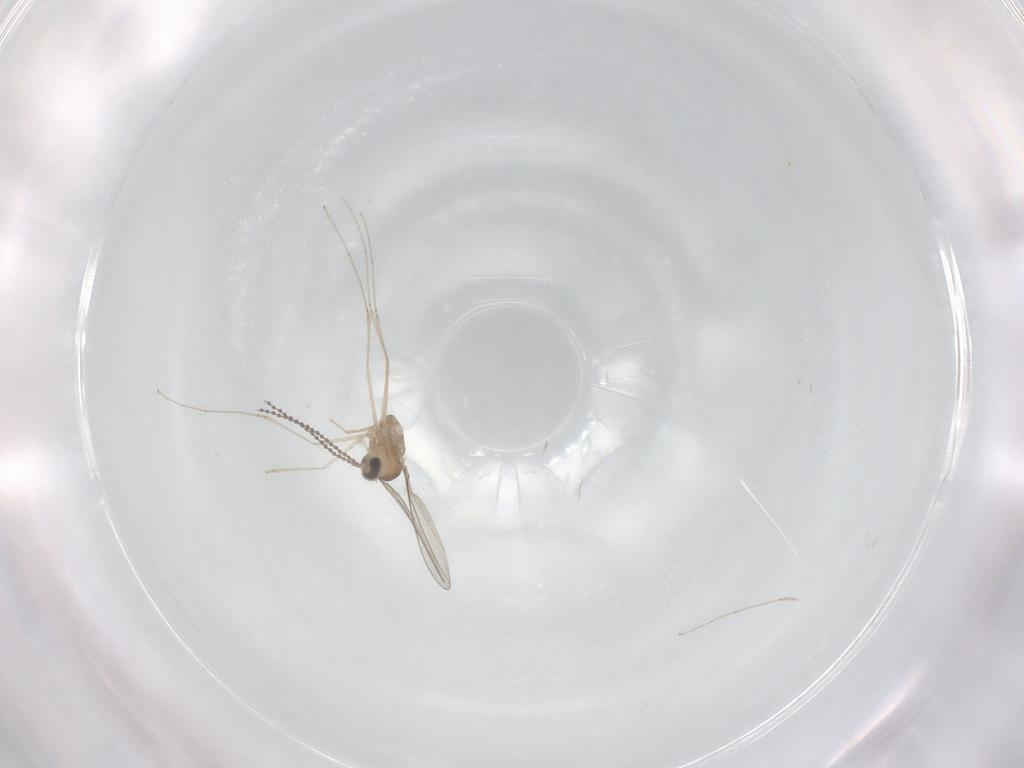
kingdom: Animalia
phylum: Arthropoda
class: Insecta
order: Diptera
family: Cecidomyiidae
